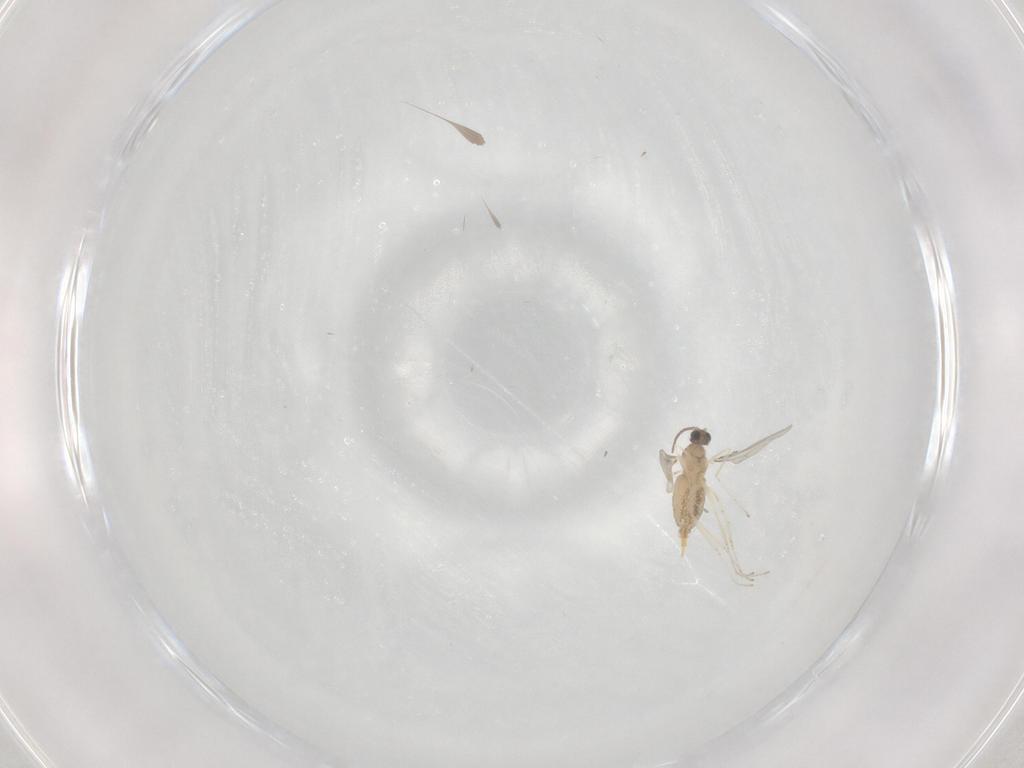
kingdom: Animalia
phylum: Arthropoda
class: Insecta
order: Diptera
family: Cecidomyiidae
